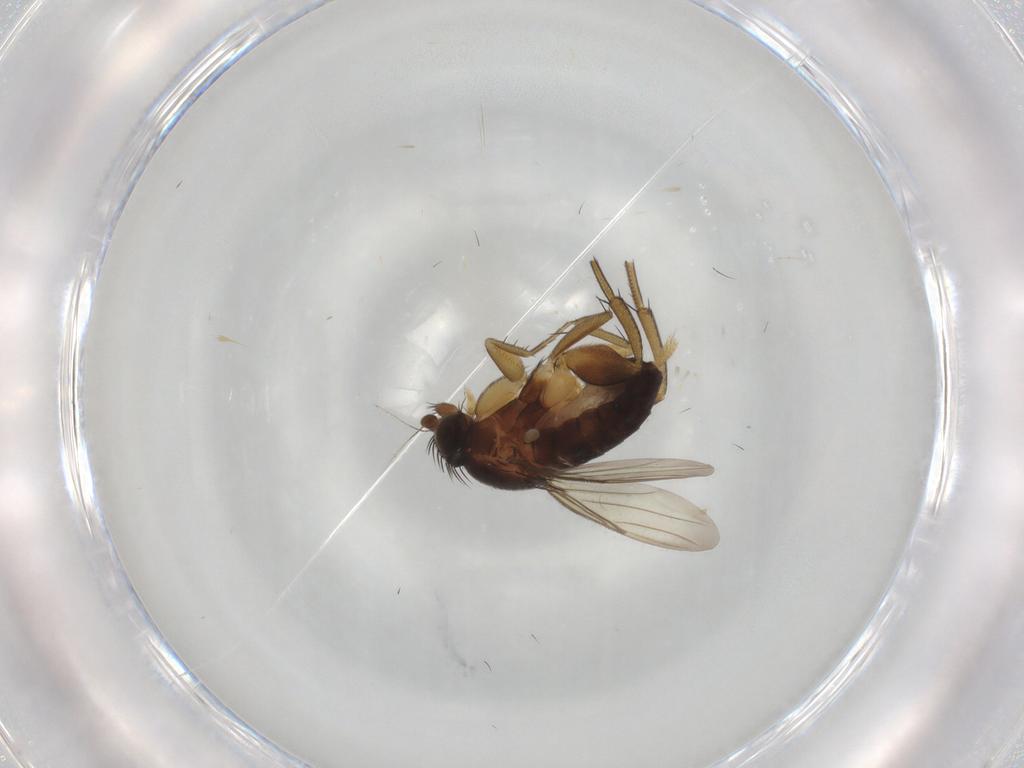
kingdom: Animalia
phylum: Arthropoda
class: Insecta
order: Diptera
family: Phoridae
